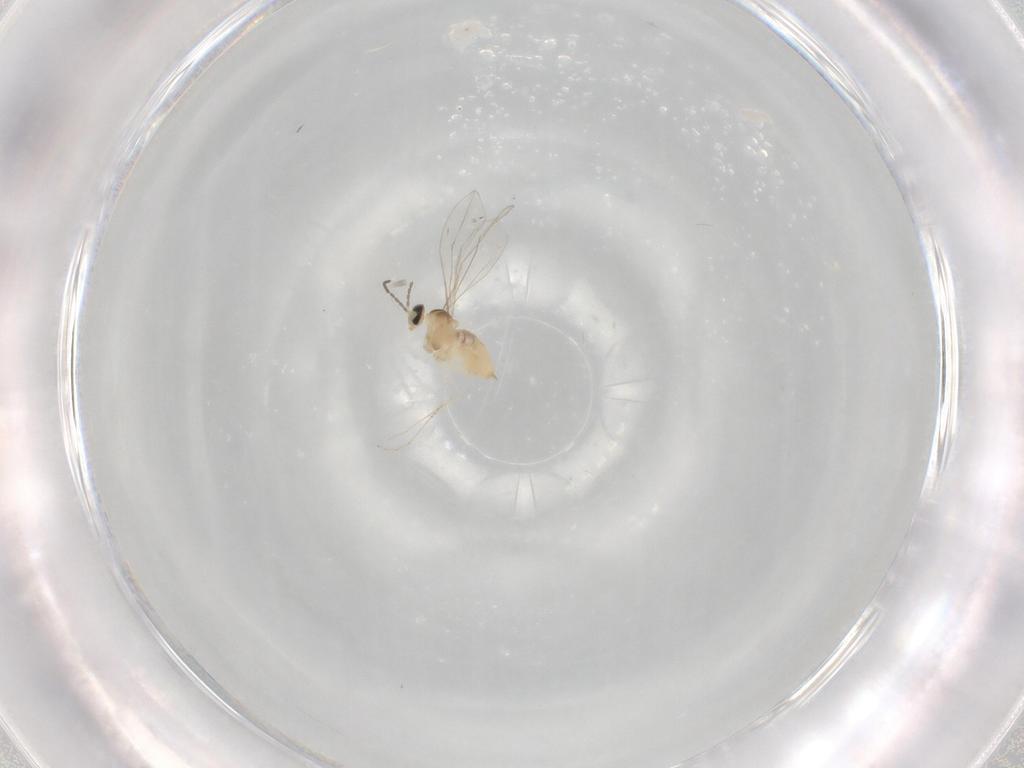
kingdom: Animalia
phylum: Arthropoda
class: Insecta
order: Diptera
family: Cecidomyiidae
